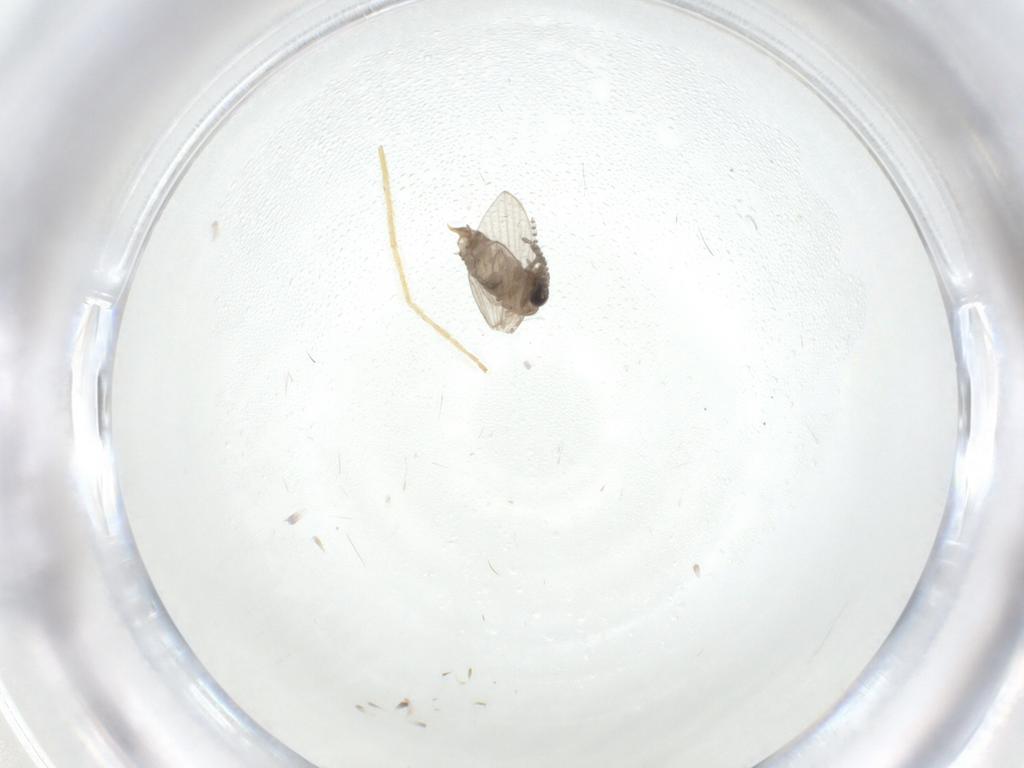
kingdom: Animalia
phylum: Arthropoda
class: Insecta
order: Diptera
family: Chironomidae
